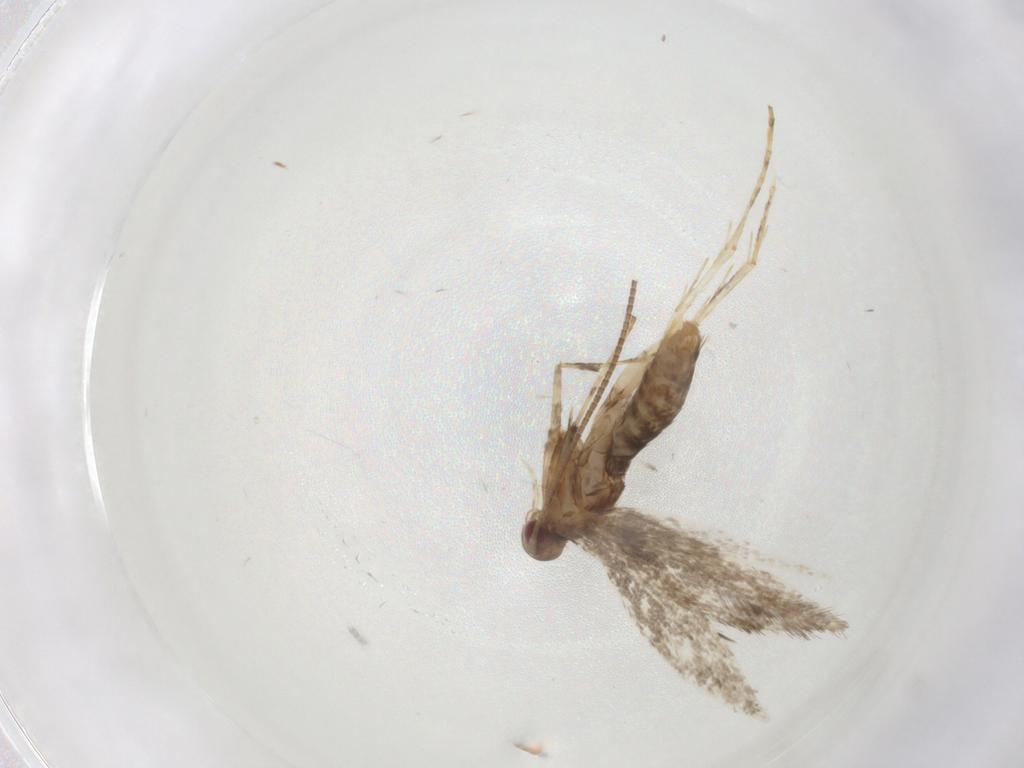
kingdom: Animalia
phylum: Arthropoda
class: Insecta
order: Lepidoptera
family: Gracillariidae
